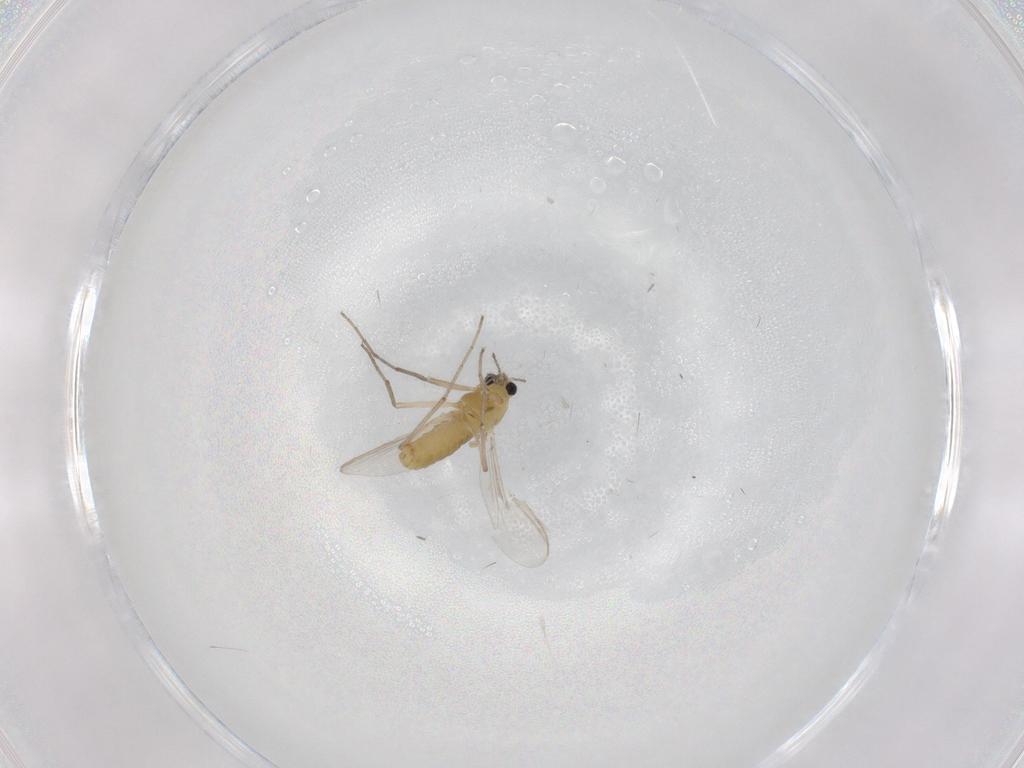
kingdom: Animalia
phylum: Arthropoda
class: Insecta
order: Diptera
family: Chironomidae
